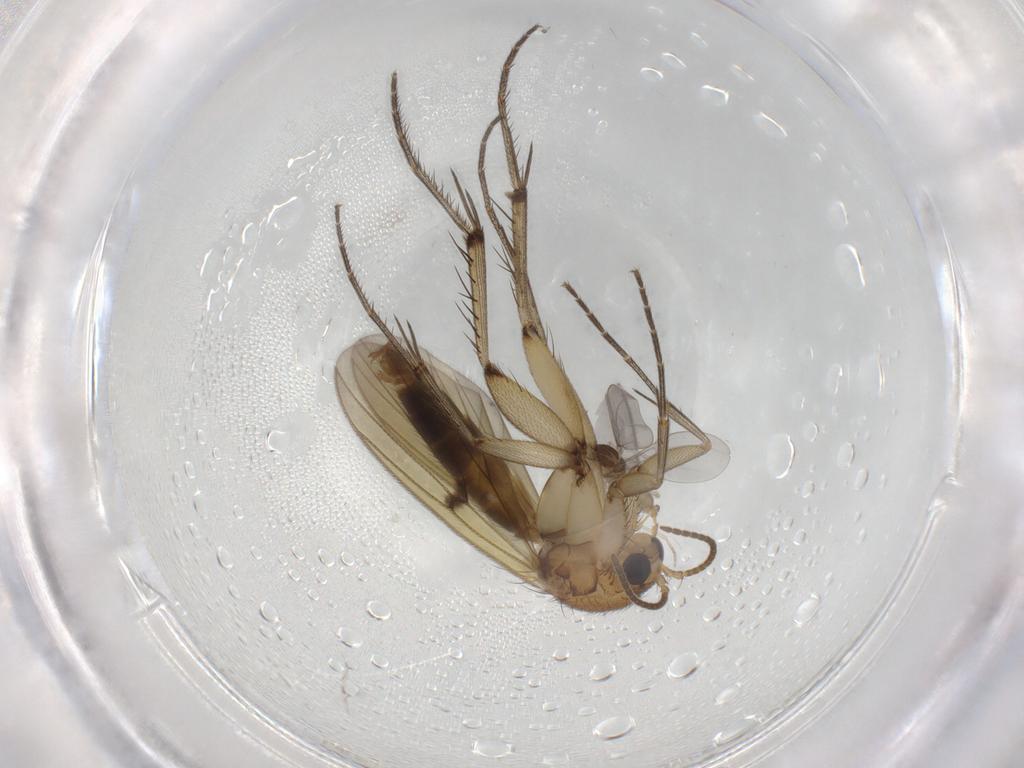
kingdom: Animalia
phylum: Arthropoda
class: Insecta
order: Diptera
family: Cecidomyiidae
